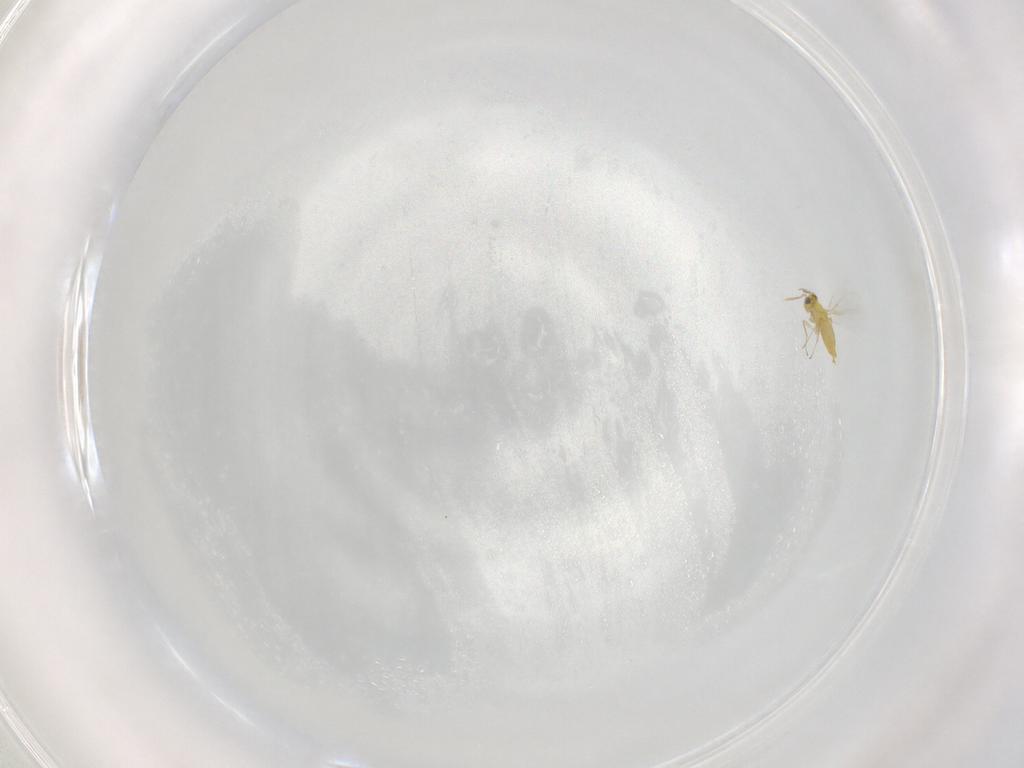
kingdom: Animalia
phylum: Arthropoda
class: Insecta
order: Hymenoptera
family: Aphelinidae
